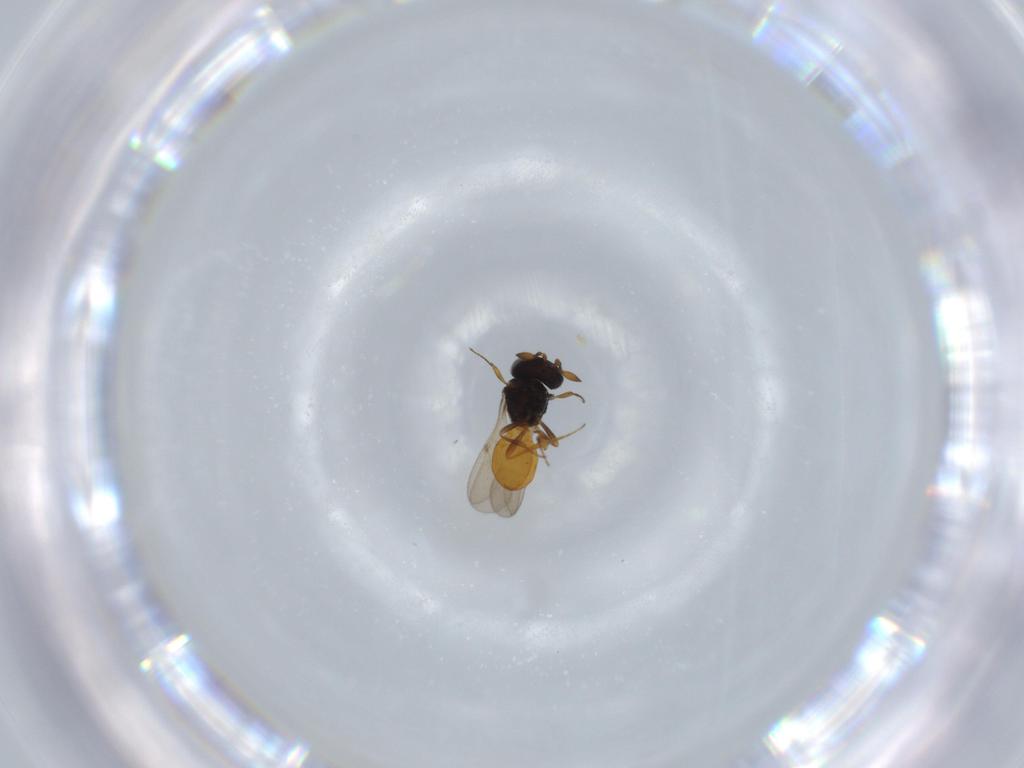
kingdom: Animalia
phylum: Arthropoda
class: Insecta
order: Hymenoptera
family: Scelionidae
